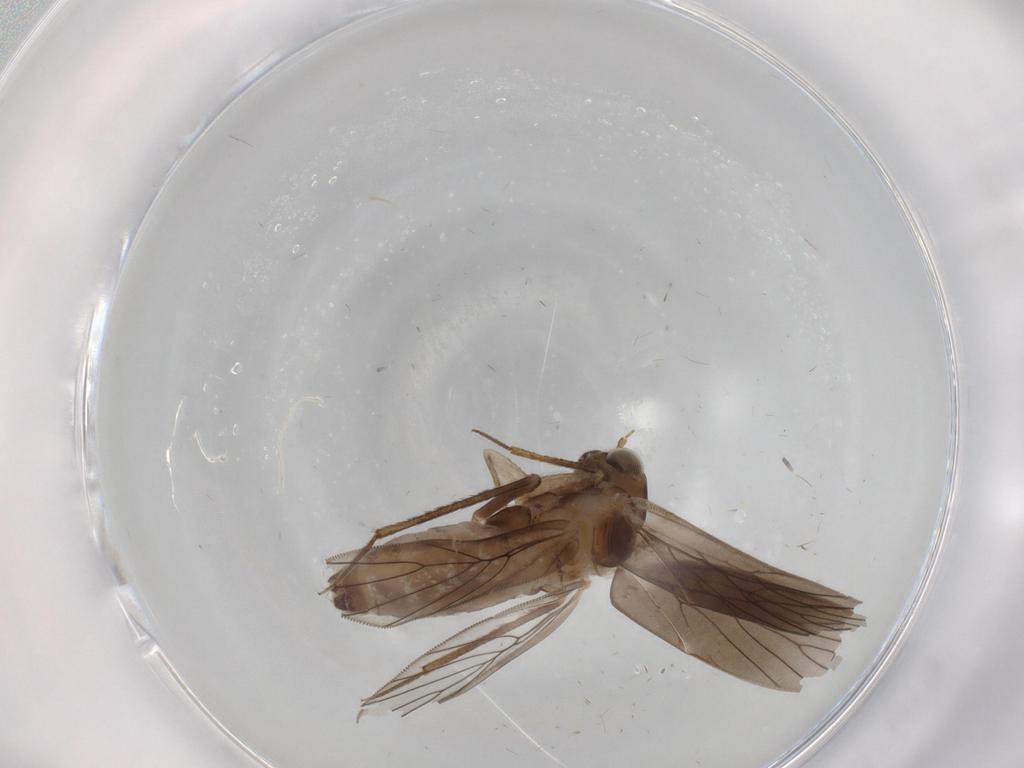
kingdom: Animalia
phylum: Arthropoda
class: Insecta
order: Psocodea
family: Lepidopsocidae
